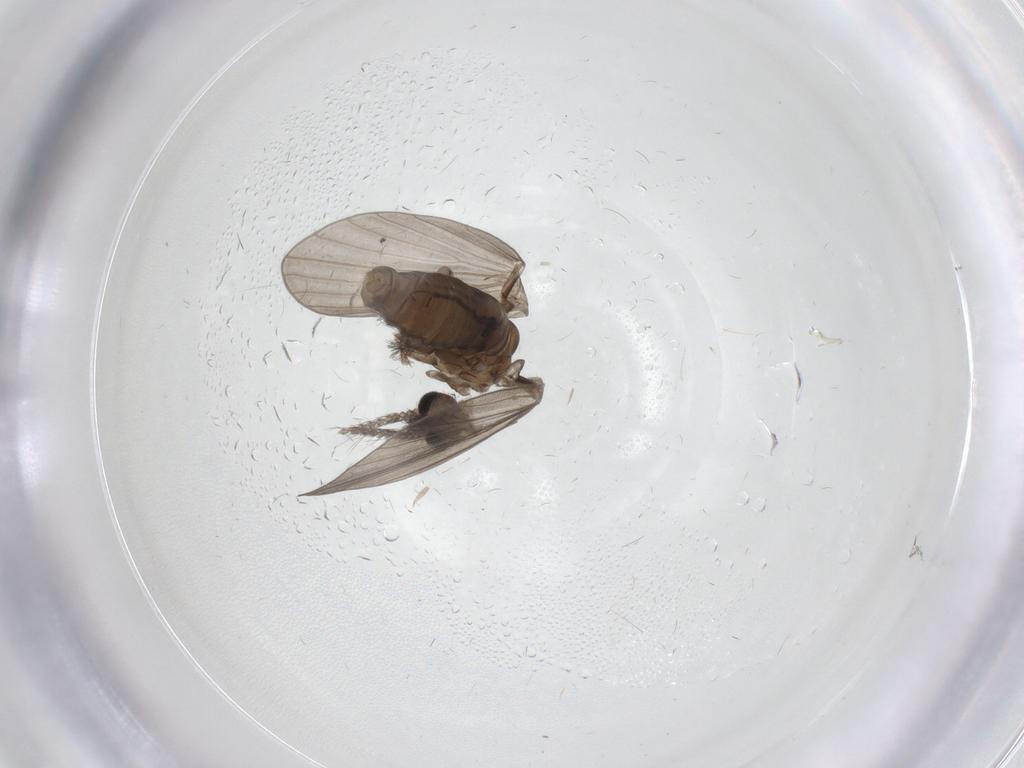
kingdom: Animalia
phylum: Arthropoda
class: Insecta
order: Diptera
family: Psychodidae
